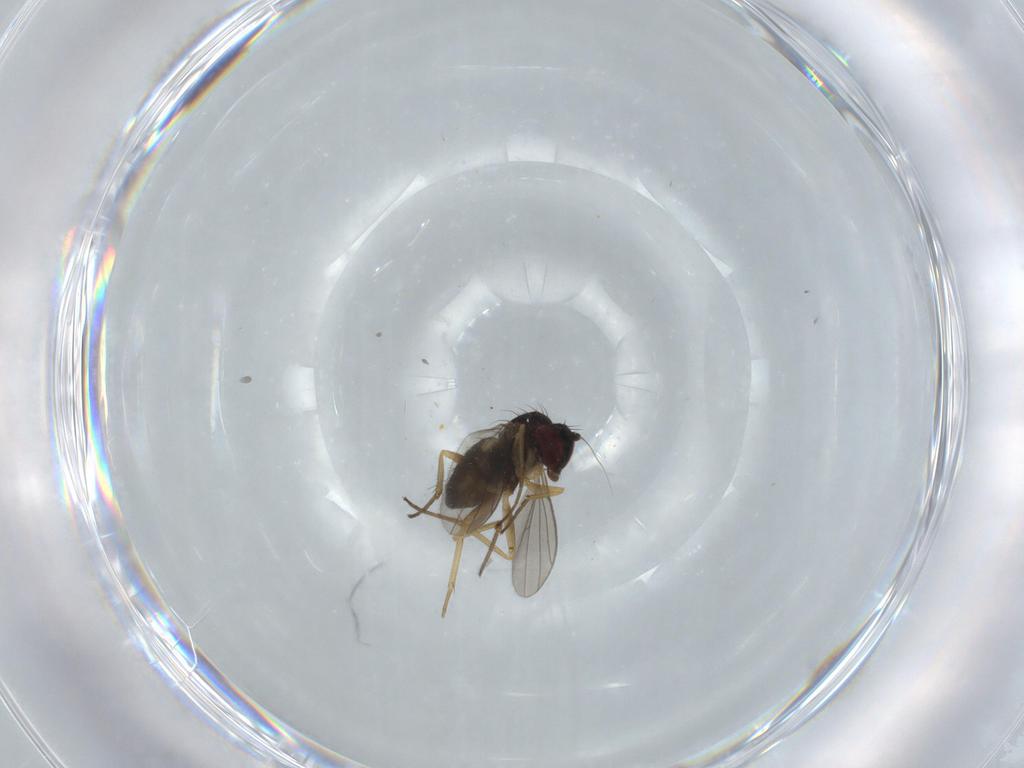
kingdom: Animalia
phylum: Arthropoda
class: Insecta
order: Diptera
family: Dolichopodidae
